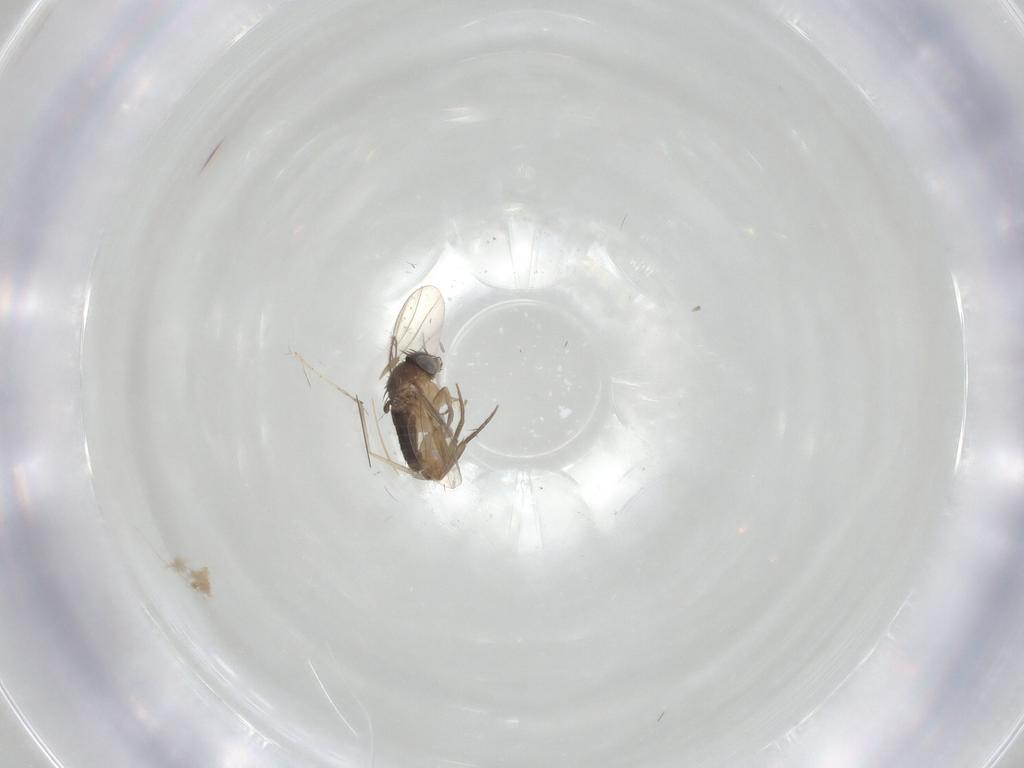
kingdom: Animalia
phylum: Arthropoda
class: Insecta
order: Diptera
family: Phoridae
